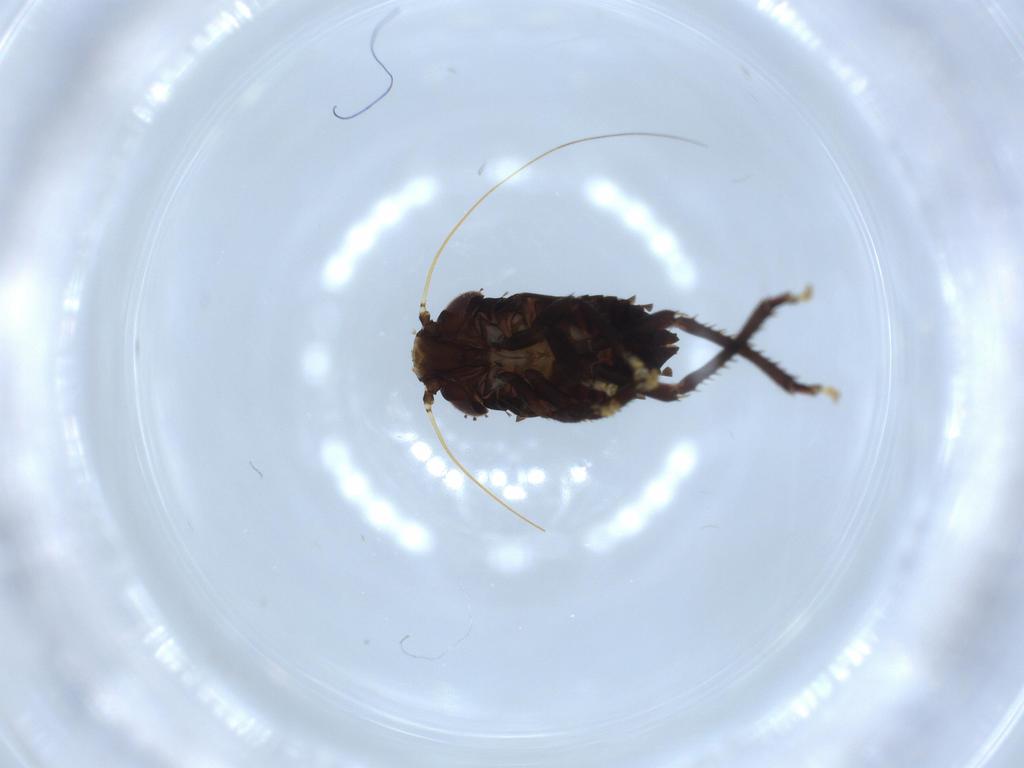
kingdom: Animalia
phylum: Arthropoda
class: Insecta
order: Hemiptera
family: Cicadellidae
